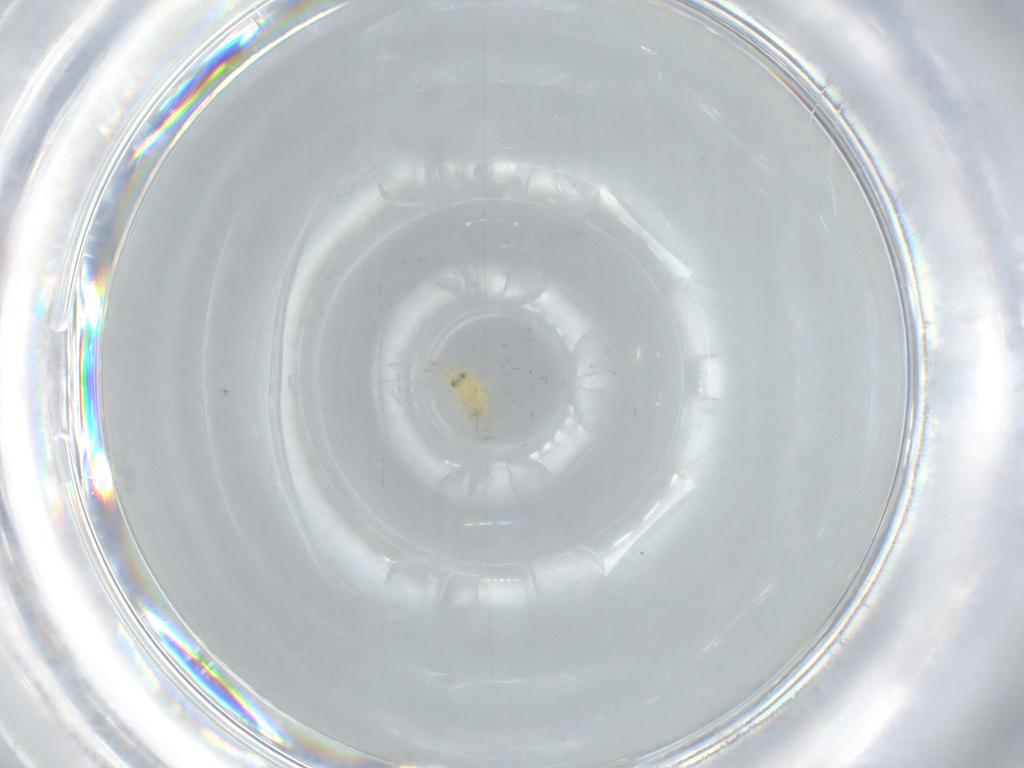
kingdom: Animalia
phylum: Arthropoda
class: Insecta
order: Hymenoptera
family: Aphelinidae
